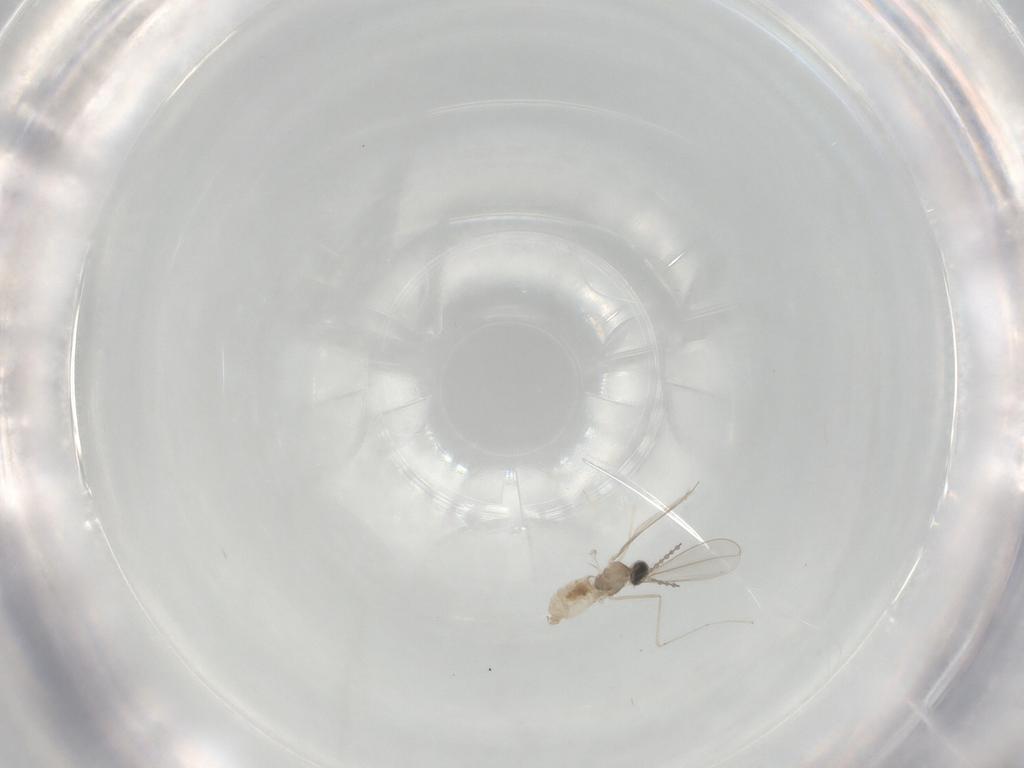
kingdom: Animalia
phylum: Arthropoda
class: Insecta
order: Diptera
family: Cecidomyiidae
